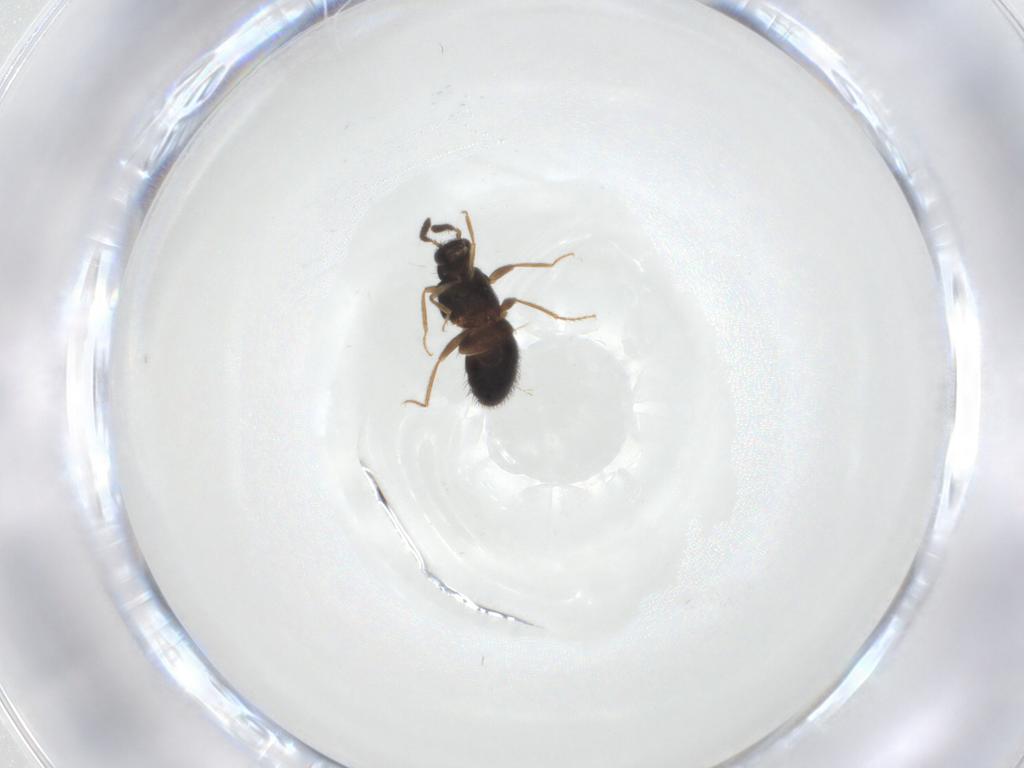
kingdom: Animalia
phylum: Arthropoda
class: Insecta
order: Coleoptera
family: Staphylinidae
